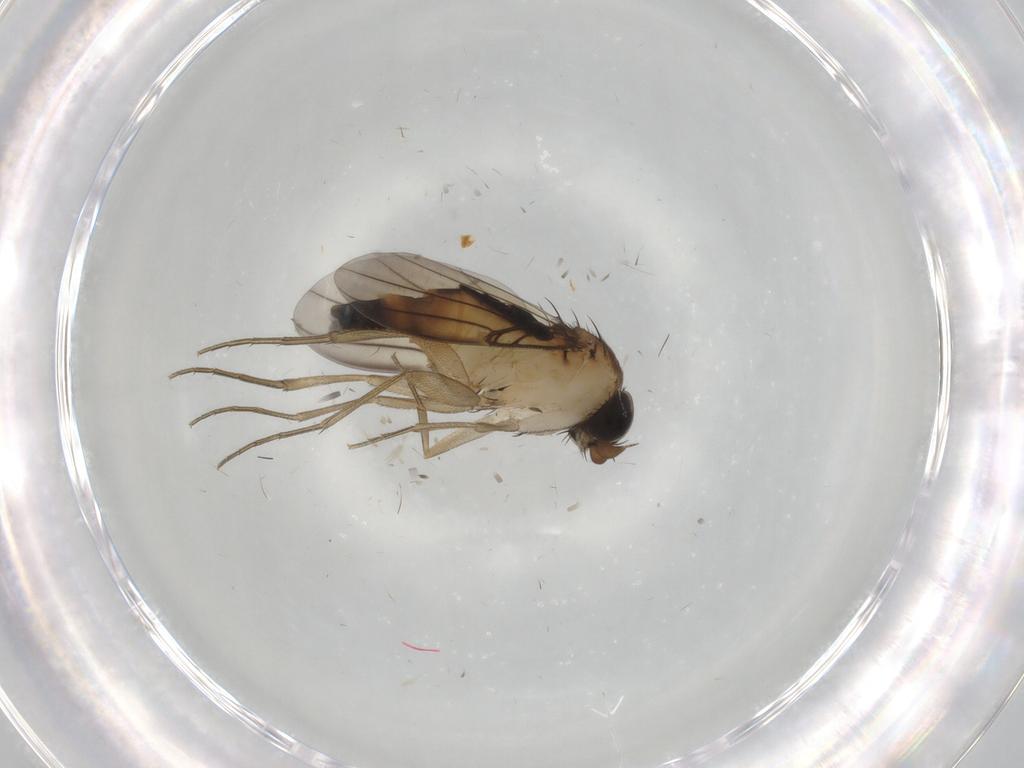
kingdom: Animalia
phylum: Arthropoda
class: Insecta
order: Diptera
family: Phoridae
